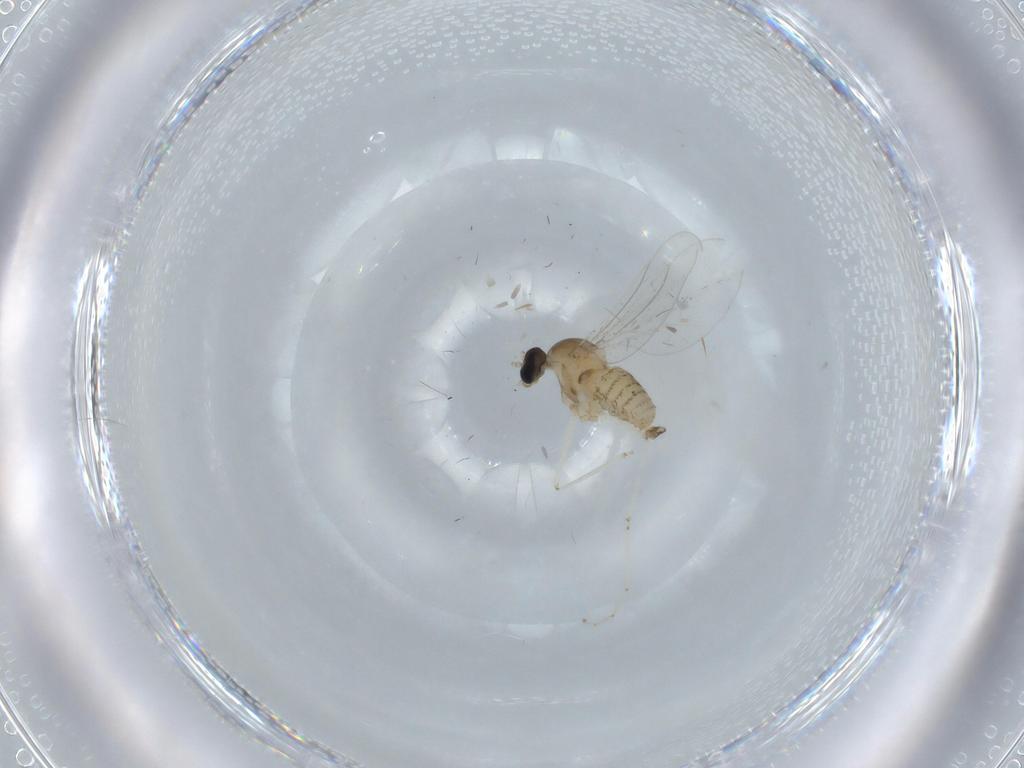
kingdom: Animalia
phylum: Arthropoda
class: Insecta
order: Diptera
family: Cecidomyiidae
